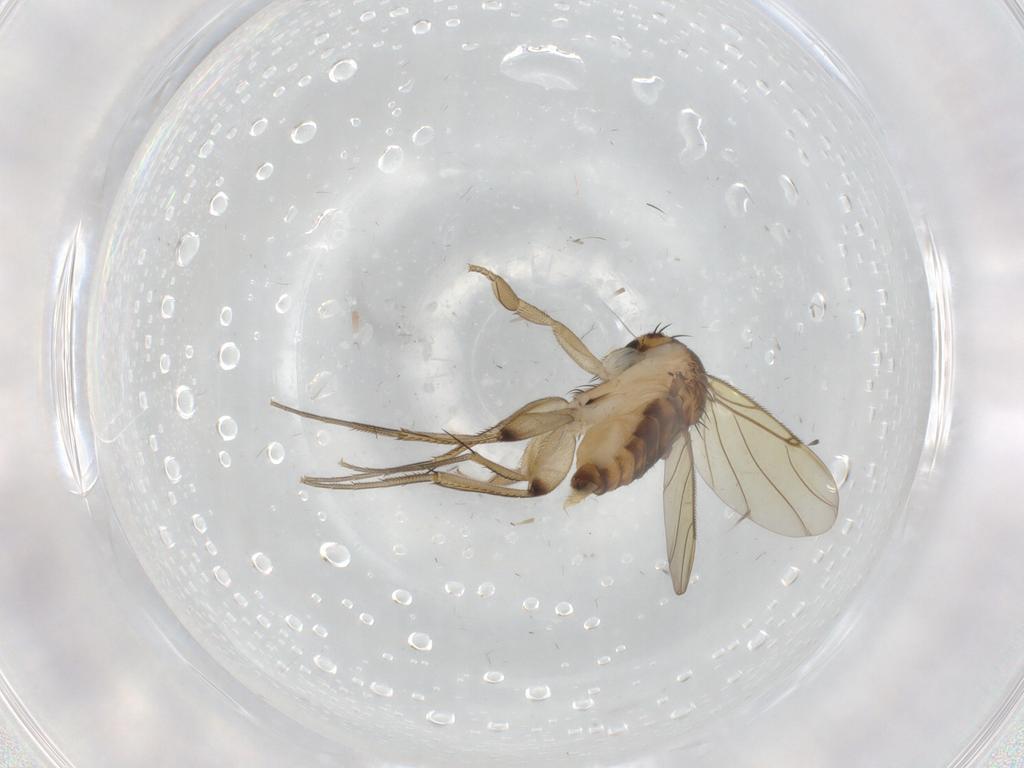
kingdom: Animalia
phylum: Arthropoda
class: Insecta
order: Diptera
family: Phoridae
